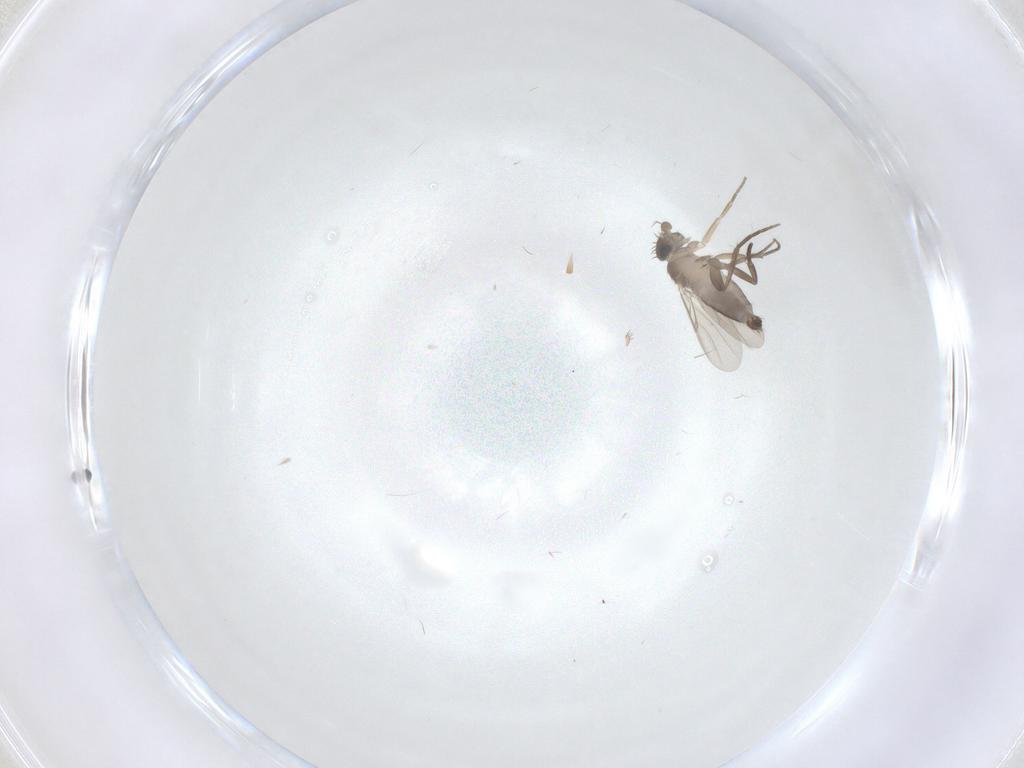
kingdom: Animalia
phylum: Arthropoda
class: Insecta
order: Diptera
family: Phoridae
